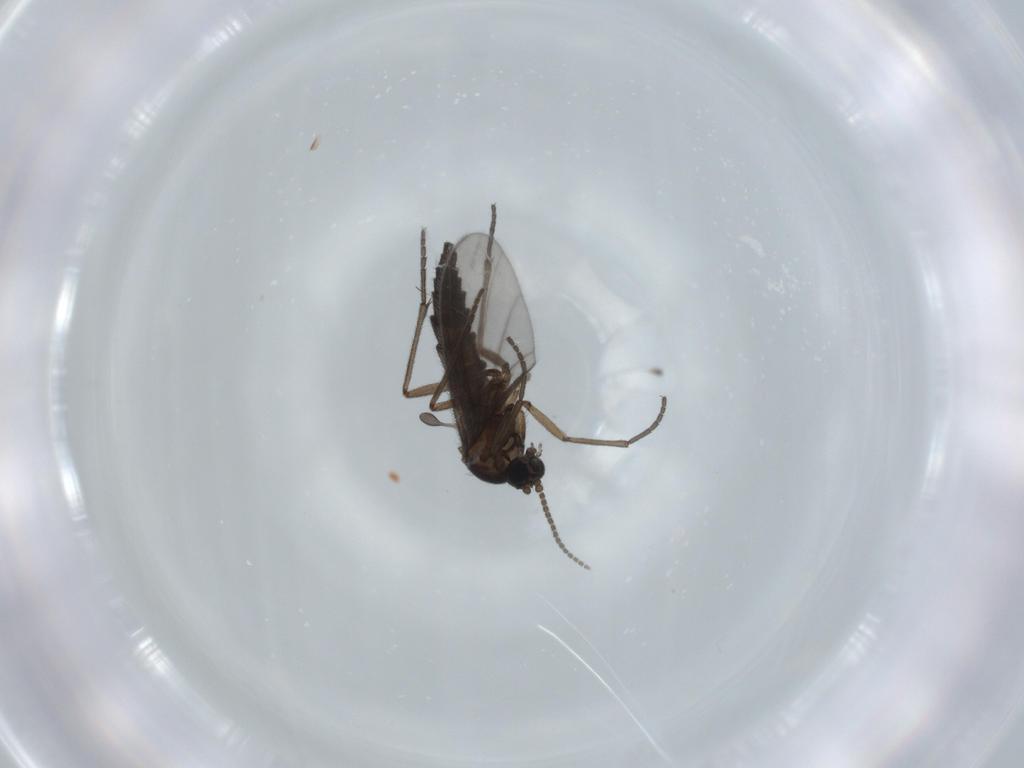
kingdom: Animalia
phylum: Arthropoda
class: Insecta
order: Diptera
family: Sciaridae
